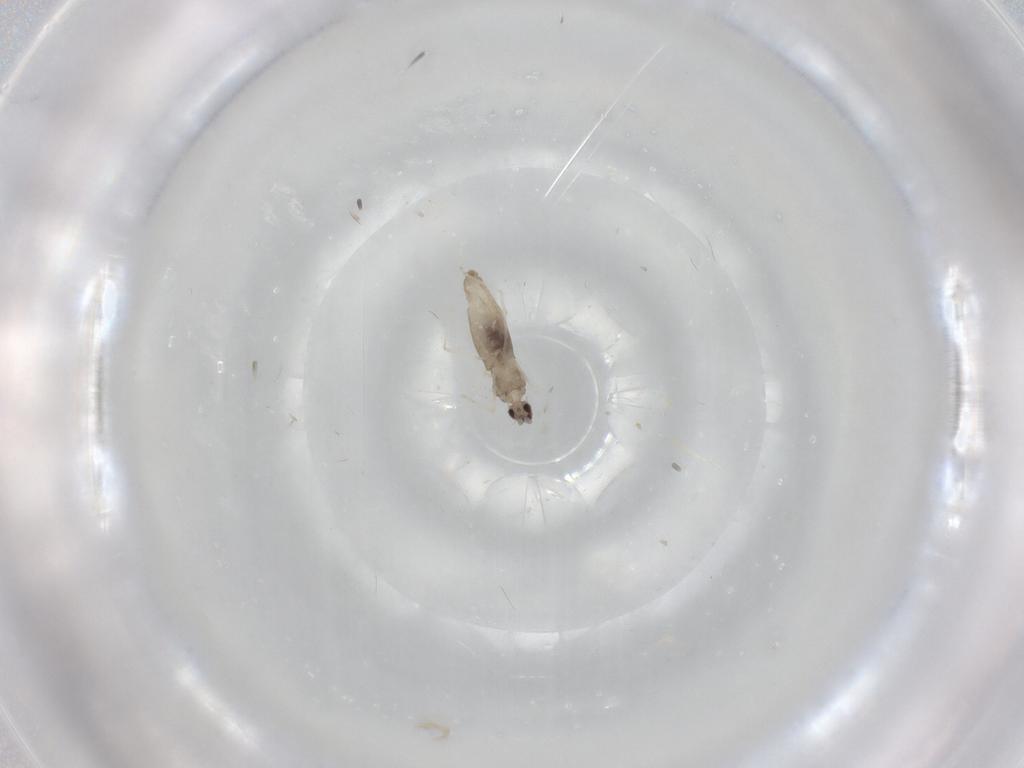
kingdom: Animalia
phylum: Arthropoda
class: Insecta
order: Diptera
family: Cecidomyiidae
